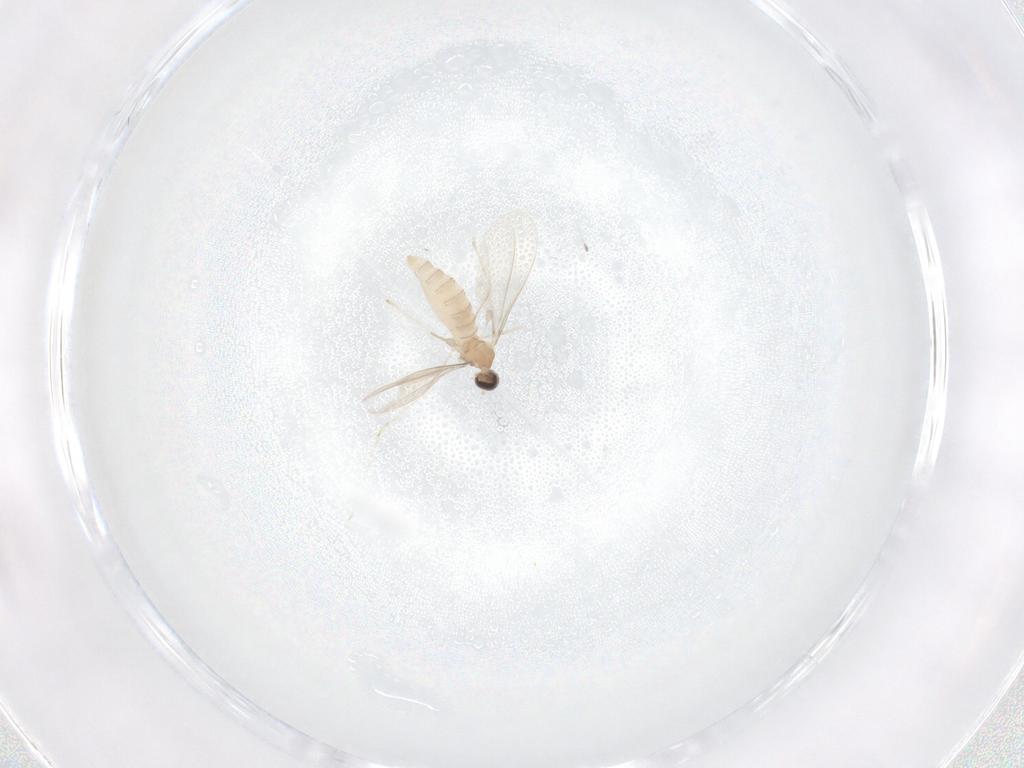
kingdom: Animalia
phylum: Arthropoda
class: Insecta
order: Diptera
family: Cecidomyiidae
